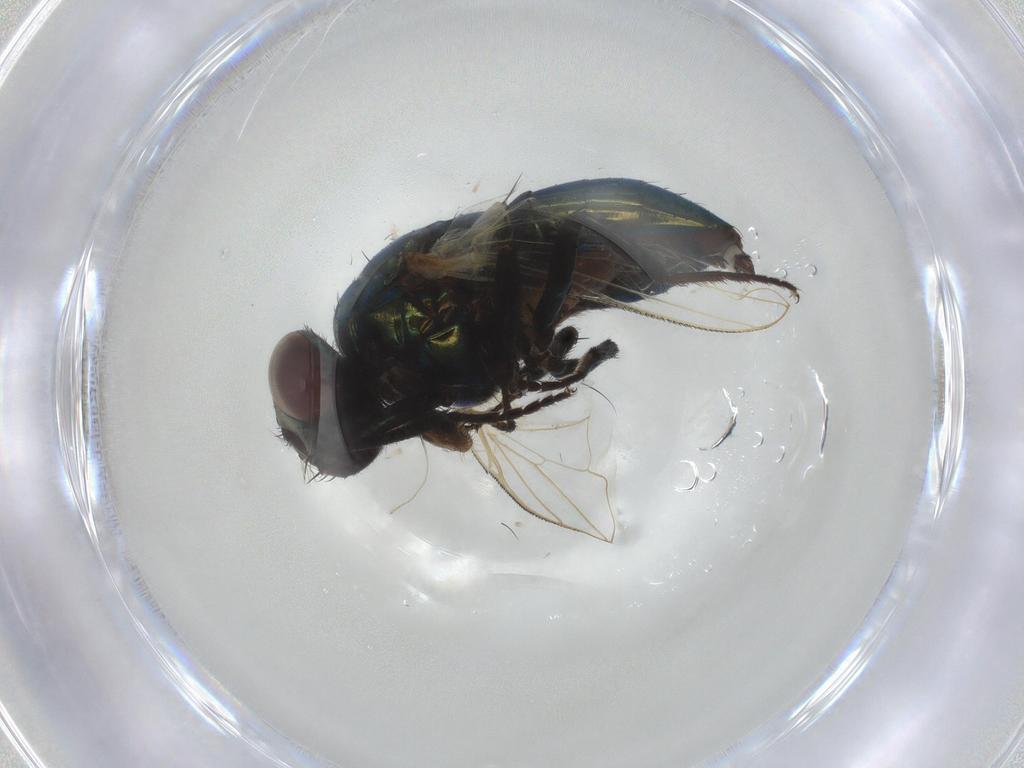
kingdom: Animalia
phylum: Arthropoda
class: Insecta
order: Diptera
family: Muscidae
